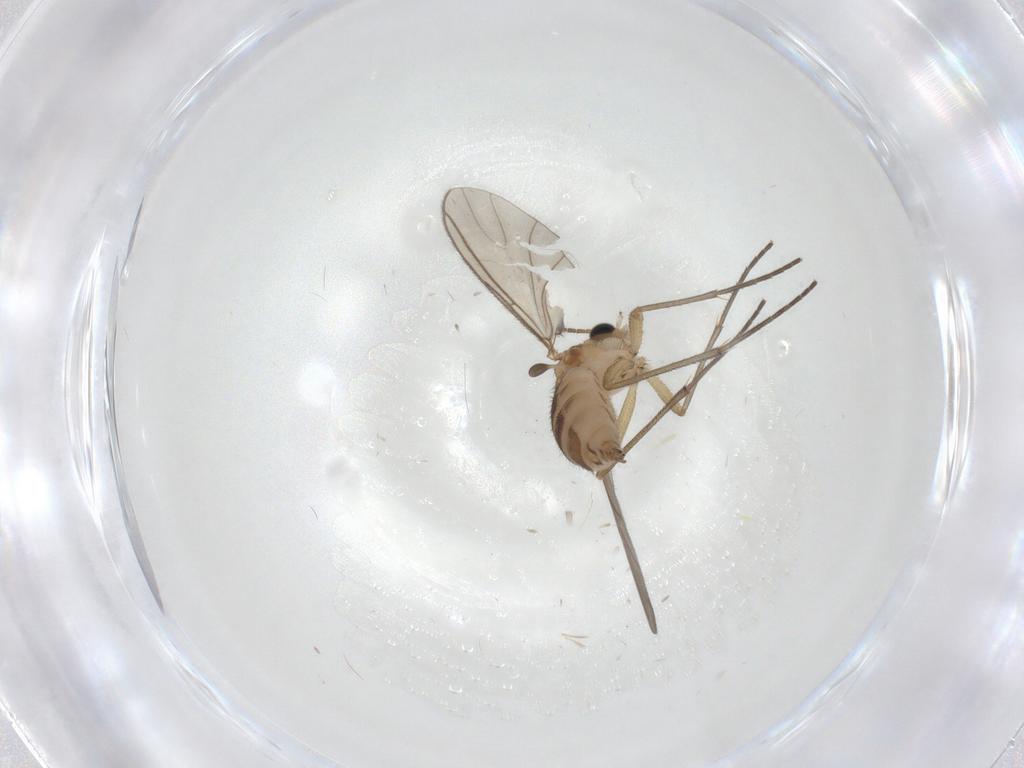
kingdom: Animalia
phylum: Arthropoda
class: Insecta
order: Diptera
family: Sciaridae
